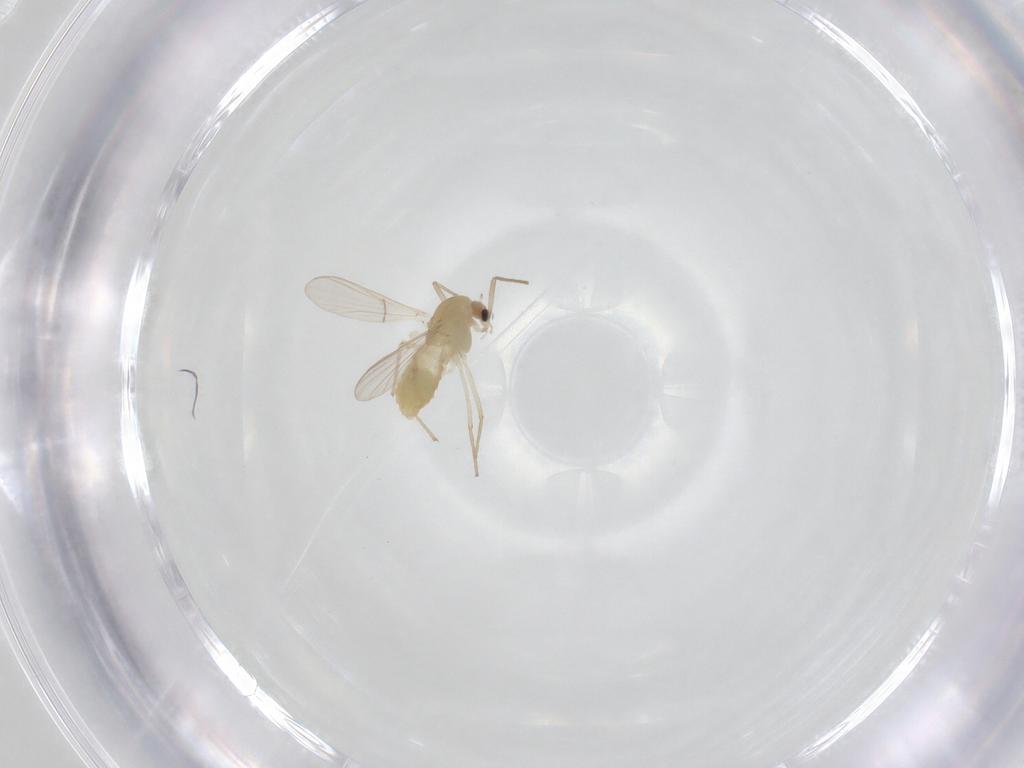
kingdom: Animalia
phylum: Arthropoda
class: Insecta
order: Diptera
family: Chironomidae
